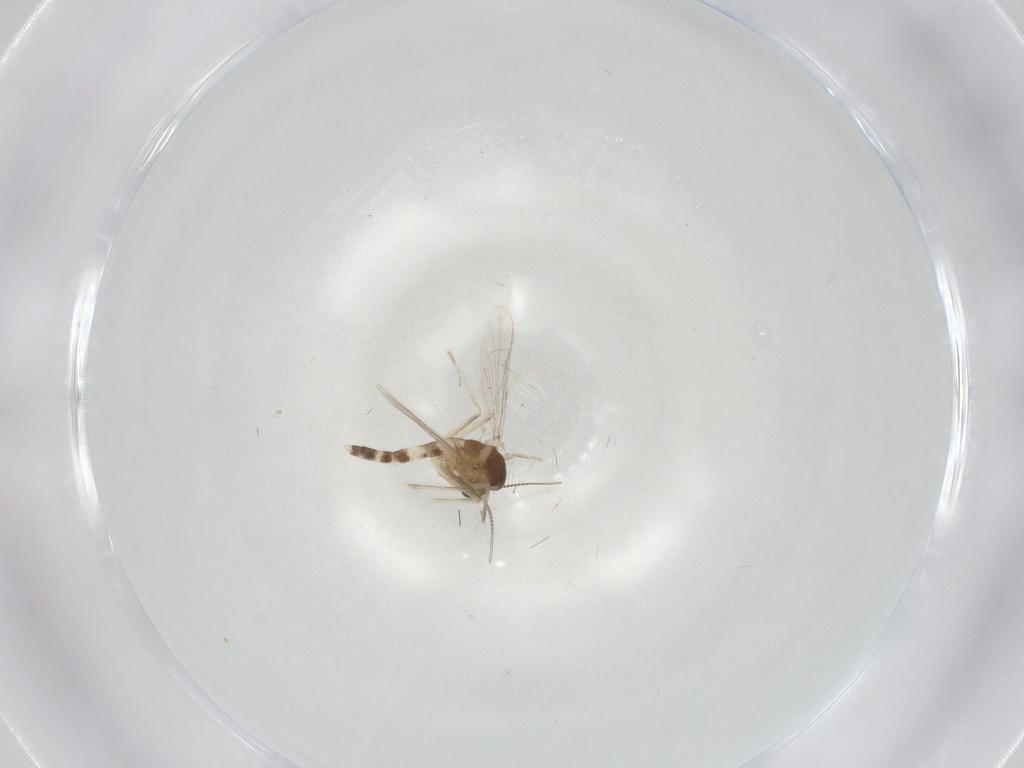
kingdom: Animalia
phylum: Arthropoda
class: Insecta
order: Diptera
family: Chironomidae
